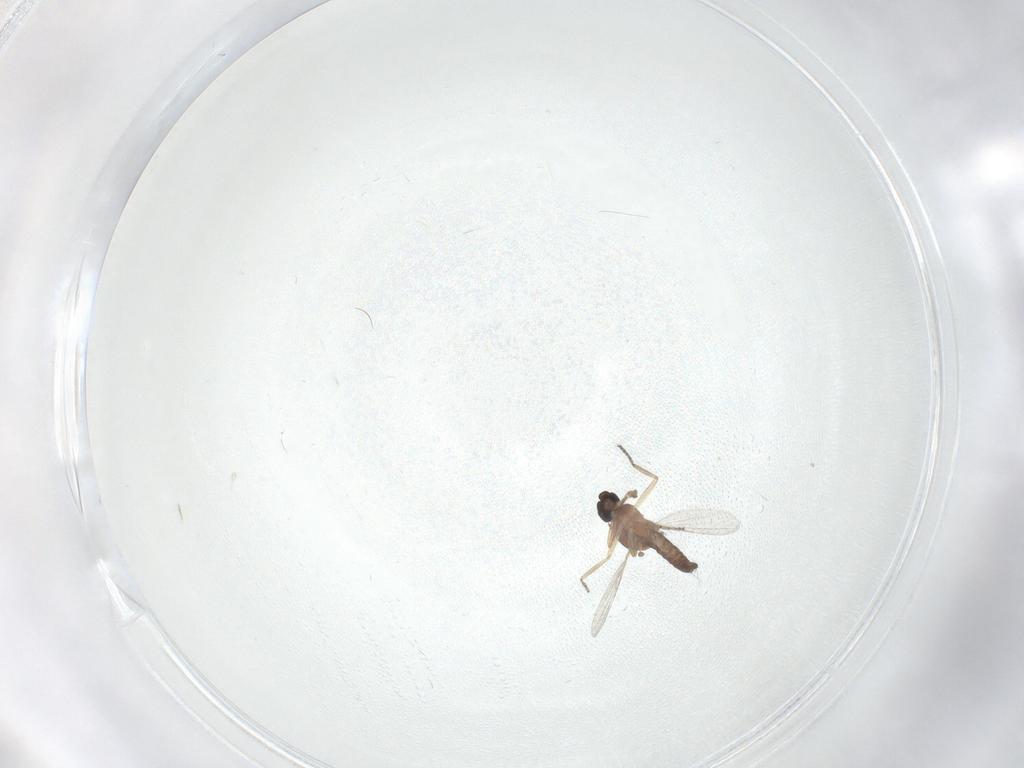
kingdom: Animalia
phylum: Arthropoda
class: Insecta
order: Diptera
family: Ceratopogonidae
